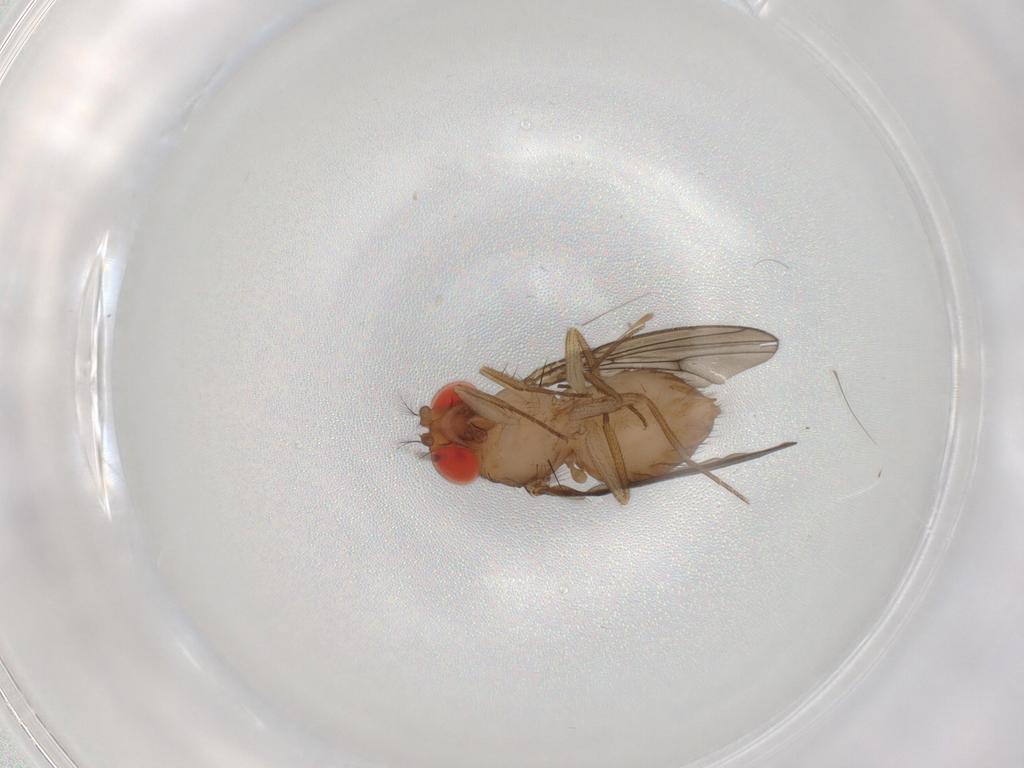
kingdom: Animalia
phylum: Arthropoda
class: Insecta
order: Diptera
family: Drosophilidae
